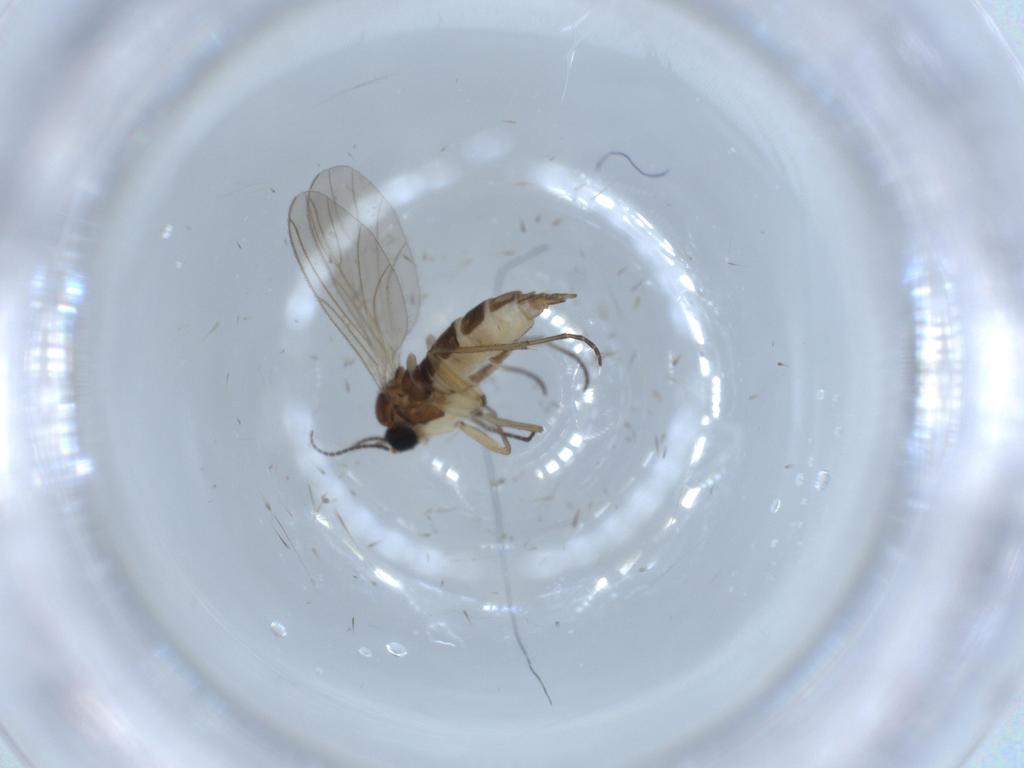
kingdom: Animalia
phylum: Arthropoda
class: Insecta
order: Diptera
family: Sciaridae
